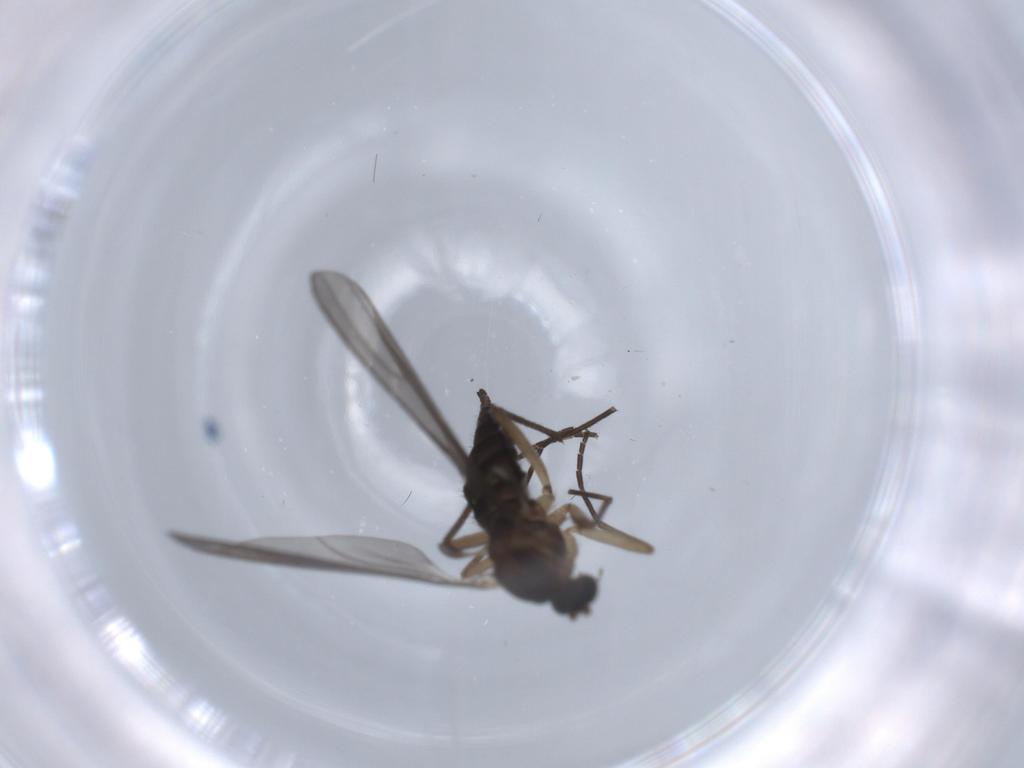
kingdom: Animalia
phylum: Arthropoda
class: Insecta
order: Diptera
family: Sciaridae
